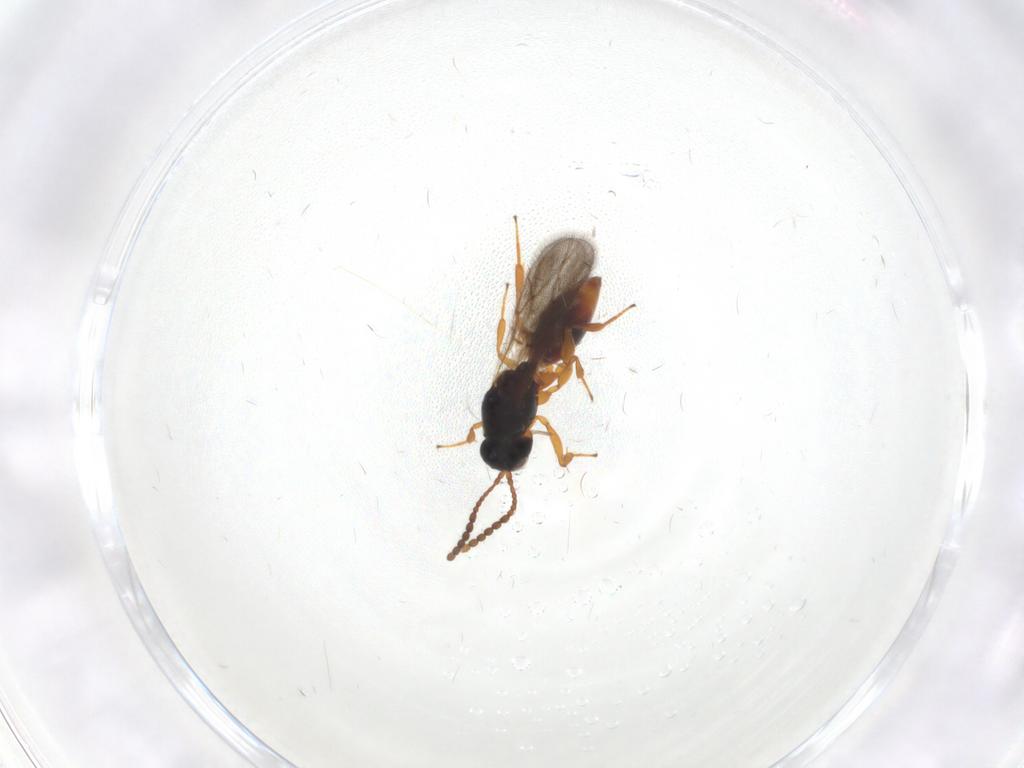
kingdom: Animalia
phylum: Arthropoda
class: Insecta
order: Hymenoptera
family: Figitidae
